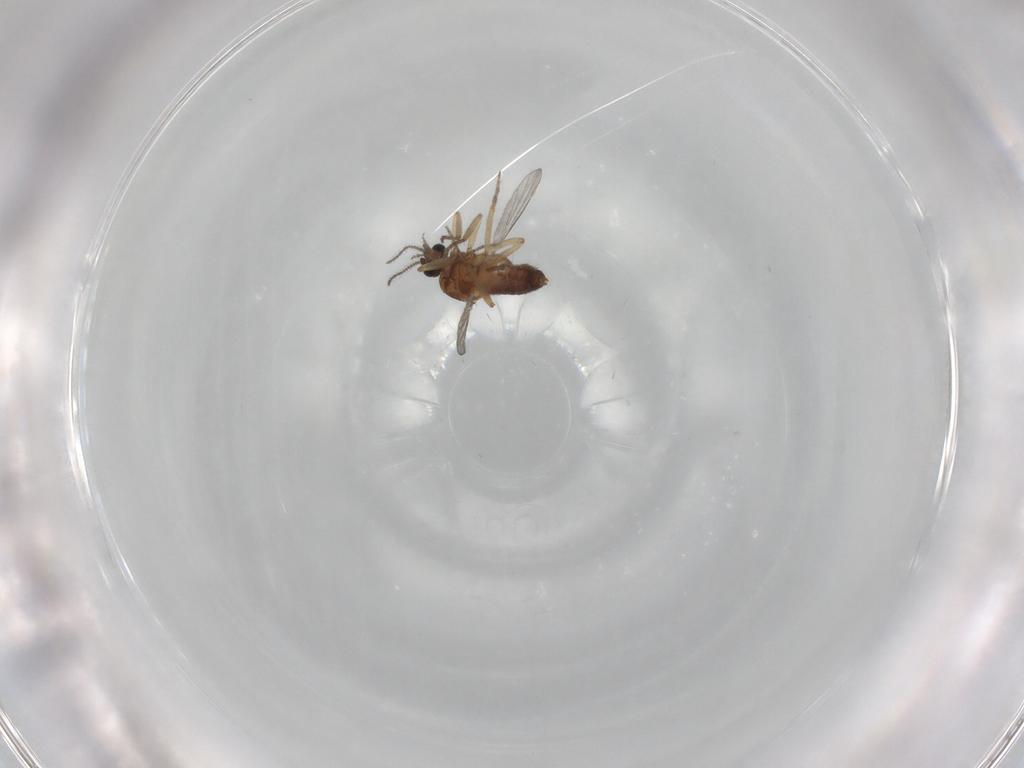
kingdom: Animalia
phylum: Arthropoda
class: Insecta
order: Diptera
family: Ceratopogonidae
